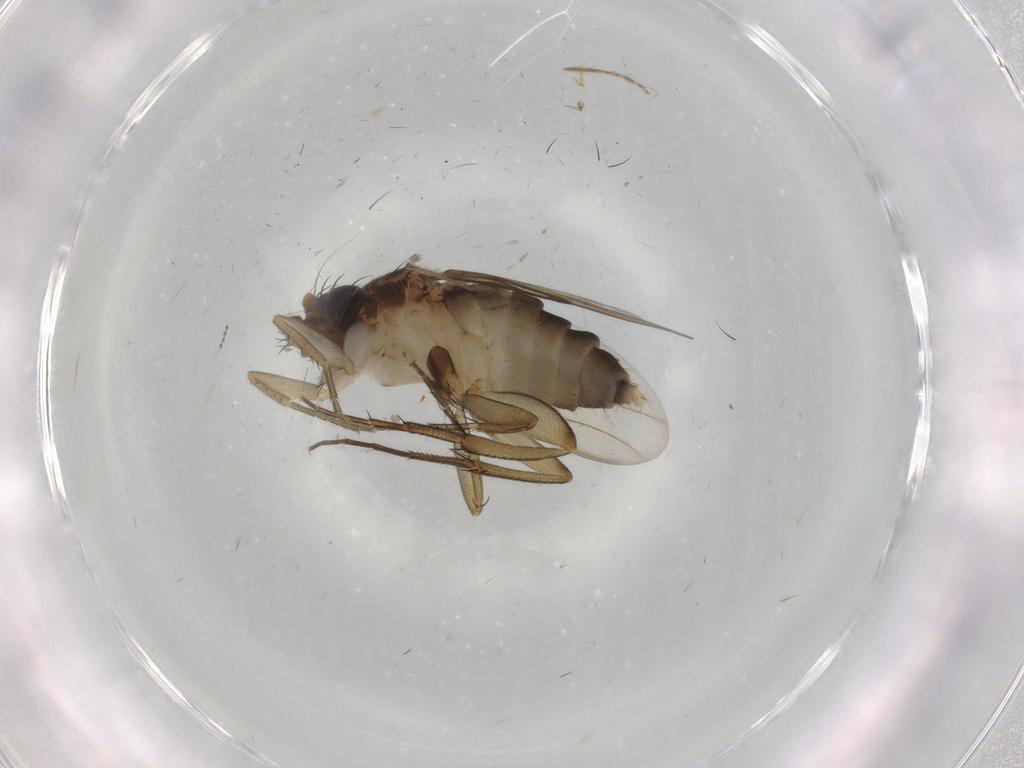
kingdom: Animalia
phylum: Arthropoda
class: Insecta
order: Diptera
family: Phoridae
